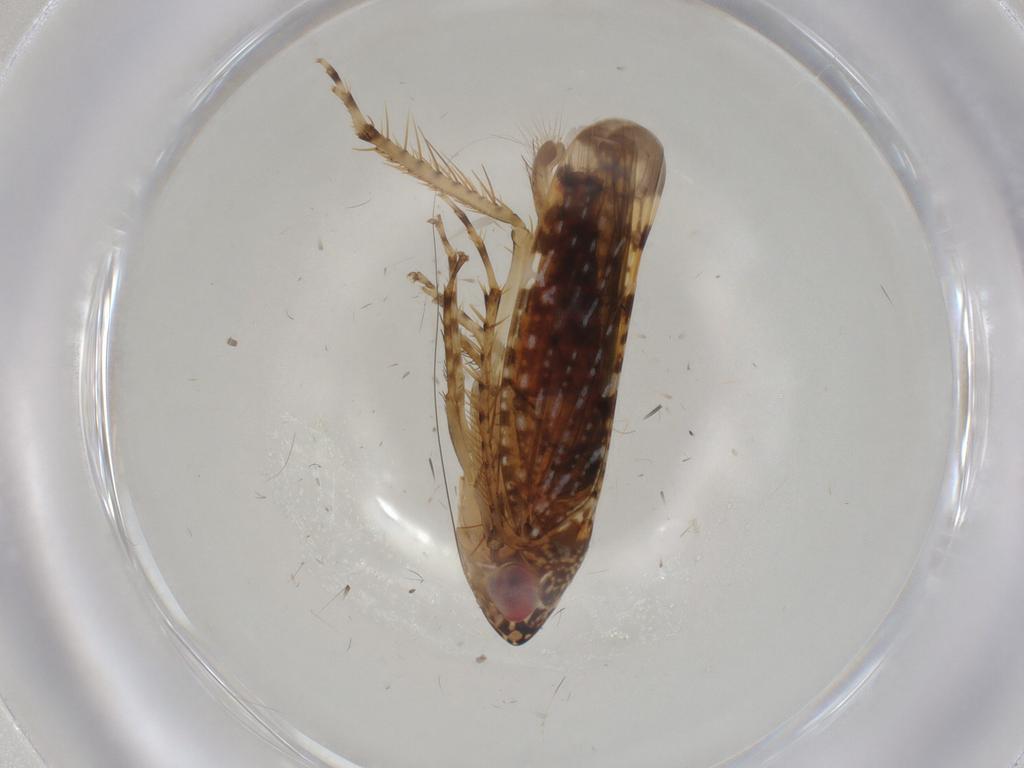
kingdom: Animalia
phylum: Arthropoda
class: Insecta
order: Hemiptera
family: Cicadellidae
